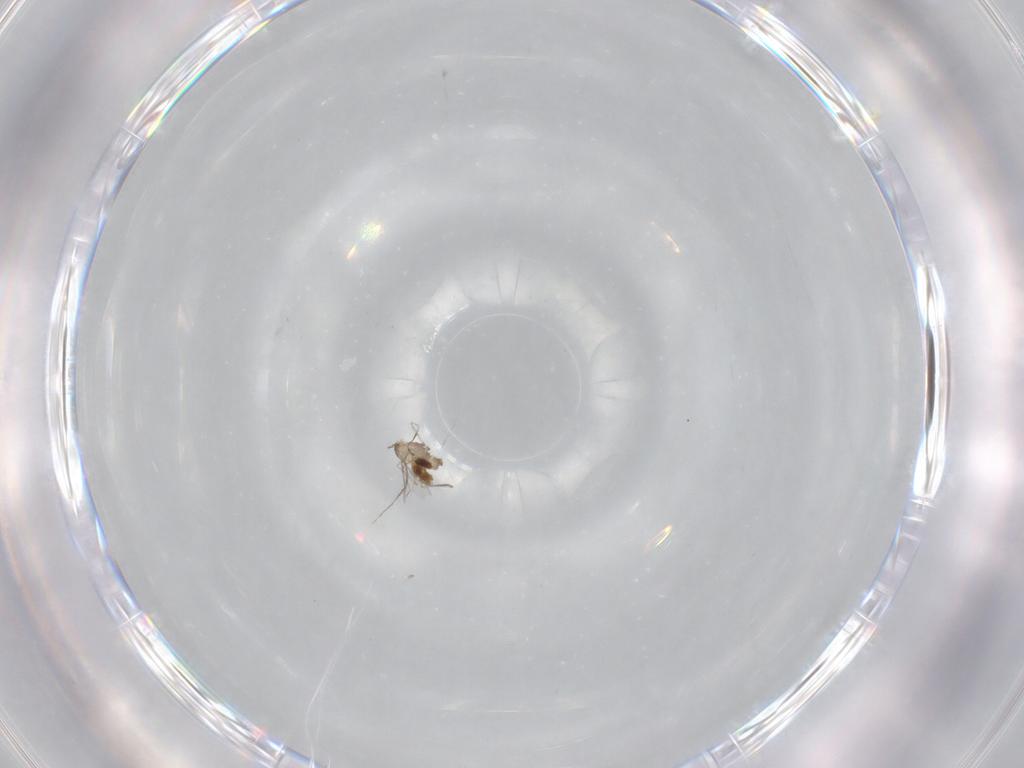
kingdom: Animalia
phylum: Arthropoda
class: Insecta
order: Diptera
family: Cecidomyiidae
